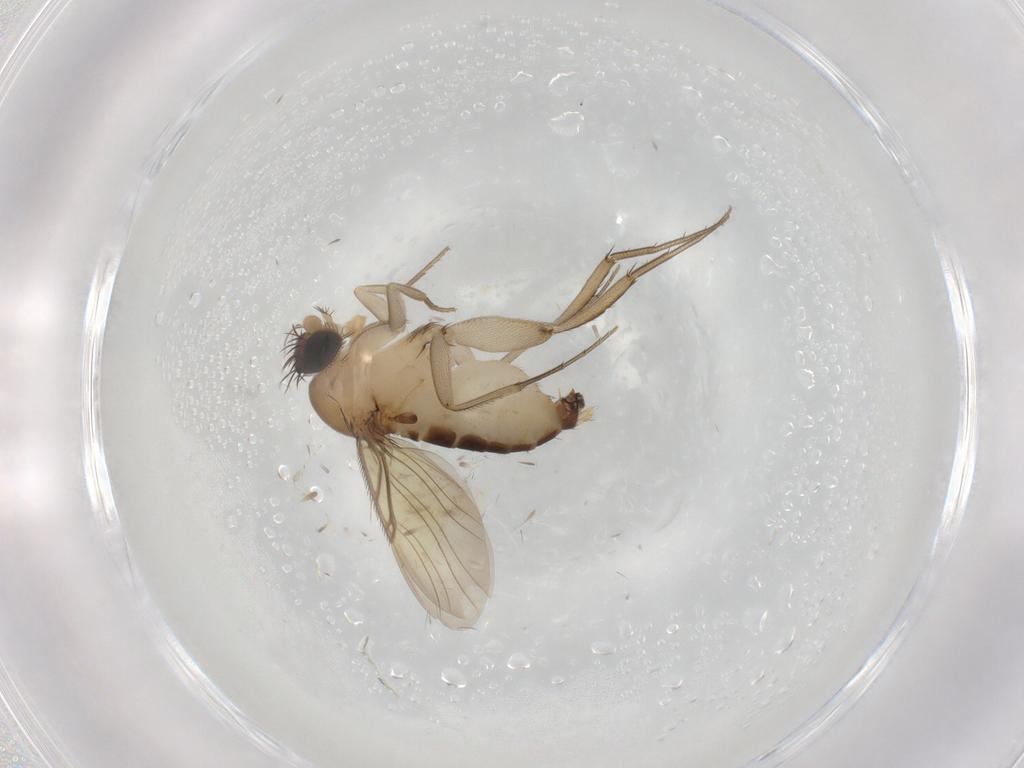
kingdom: Animalia
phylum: Arthropoda
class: Insecta
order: Diptera
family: Phoridae
